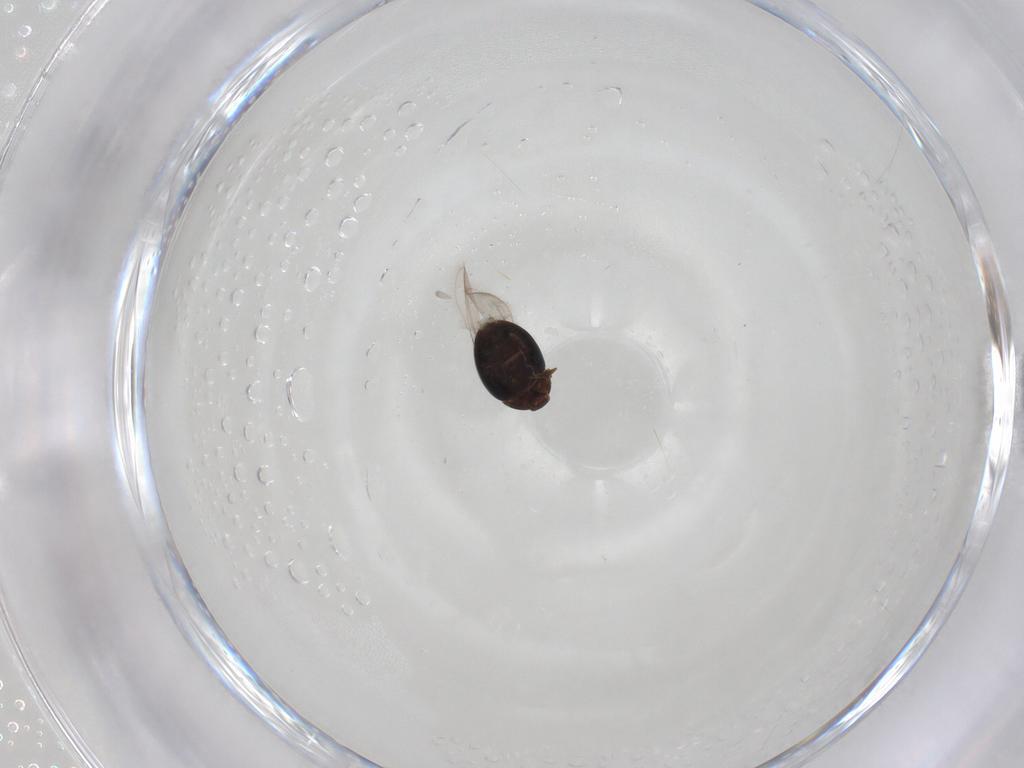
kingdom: Animalia
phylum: Arthropoda
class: Insecta
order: Coleoptera
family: Corylophidae
